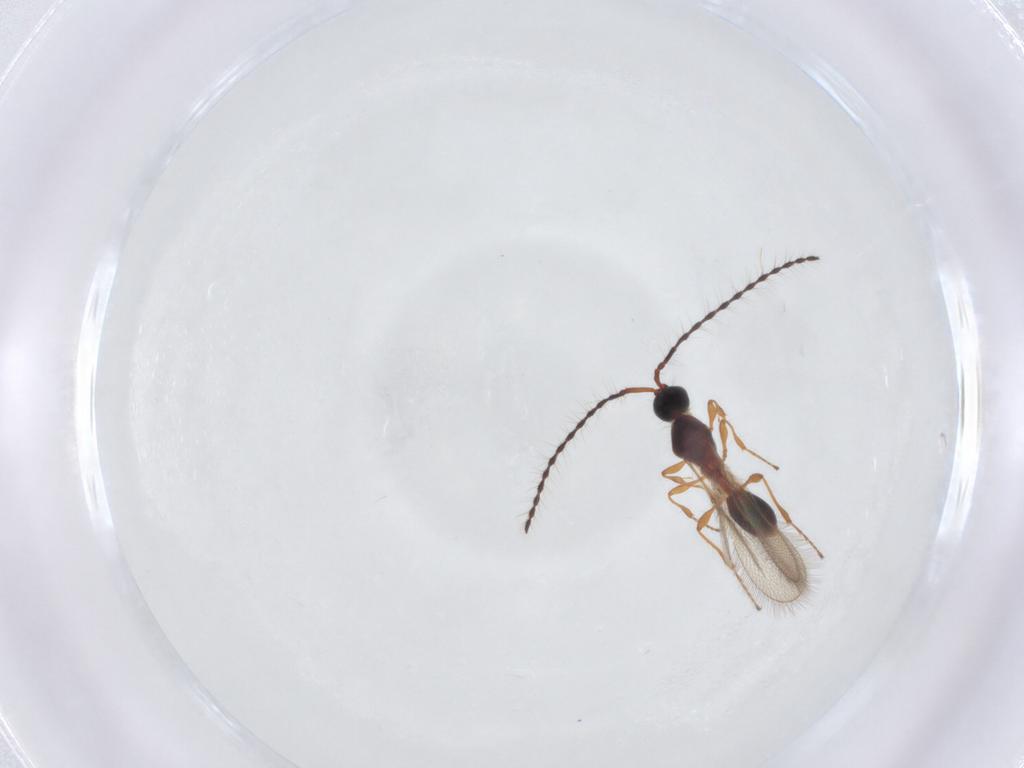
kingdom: Animalia
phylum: Arthropoda
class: Insecta
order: Hymenoptera
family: Diapriidae
